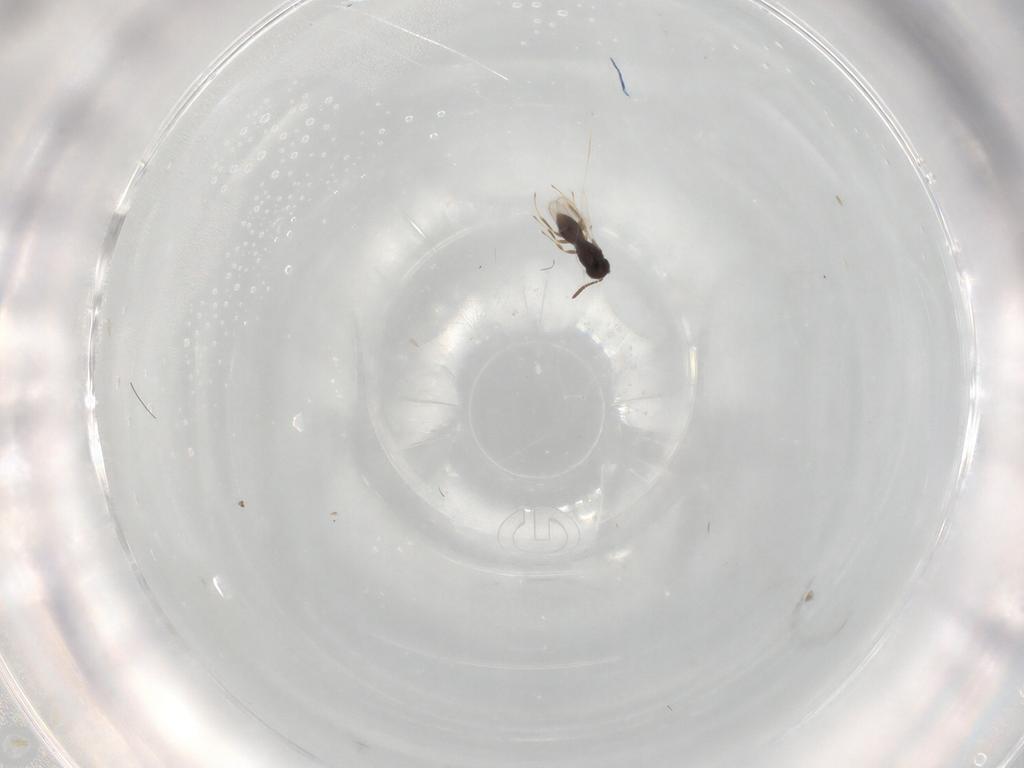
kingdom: Animalia
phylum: Arthropoda
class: Insecta
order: Hymenoptera
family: Scelionidae
